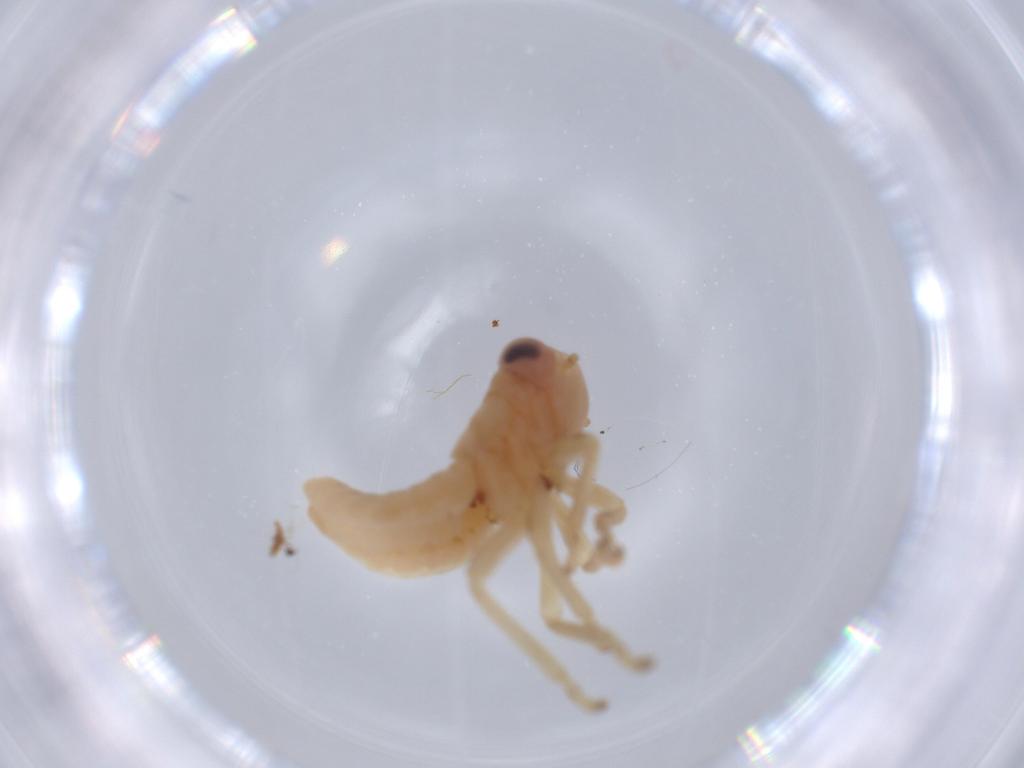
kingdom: Animalia
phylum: Arthropoda
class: Insecta
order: Hemiptera
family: Cicadellidae
